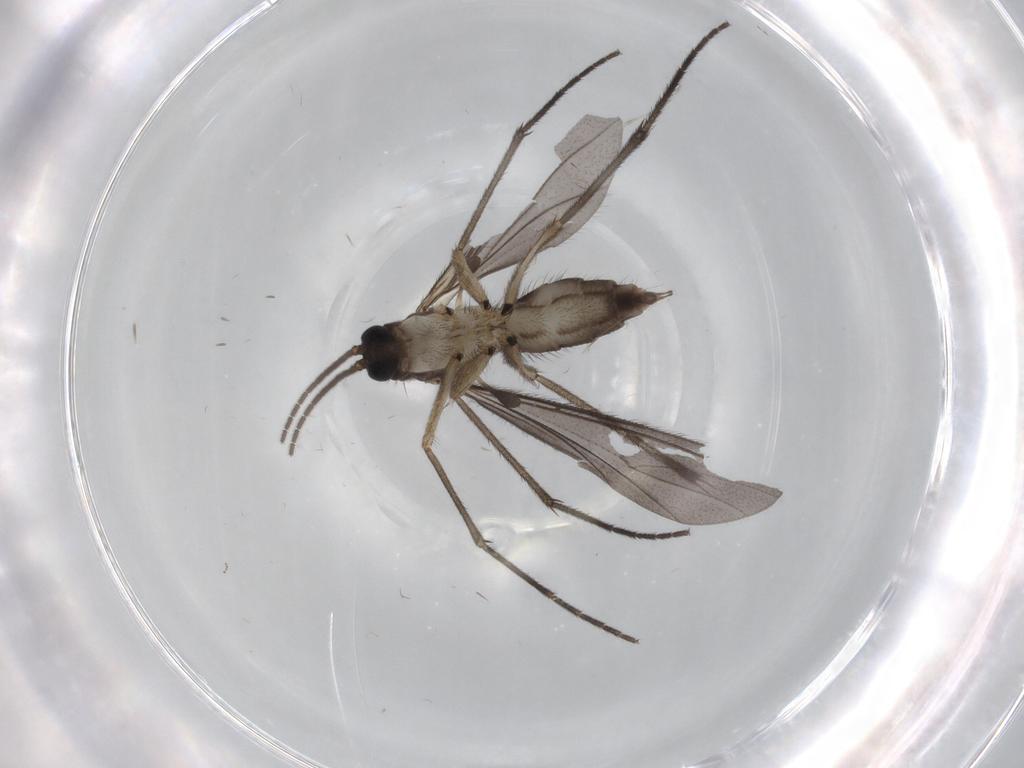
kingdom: Animalia
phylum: Arthropoda
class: Insecta
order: Diptera
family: Sciaridae
